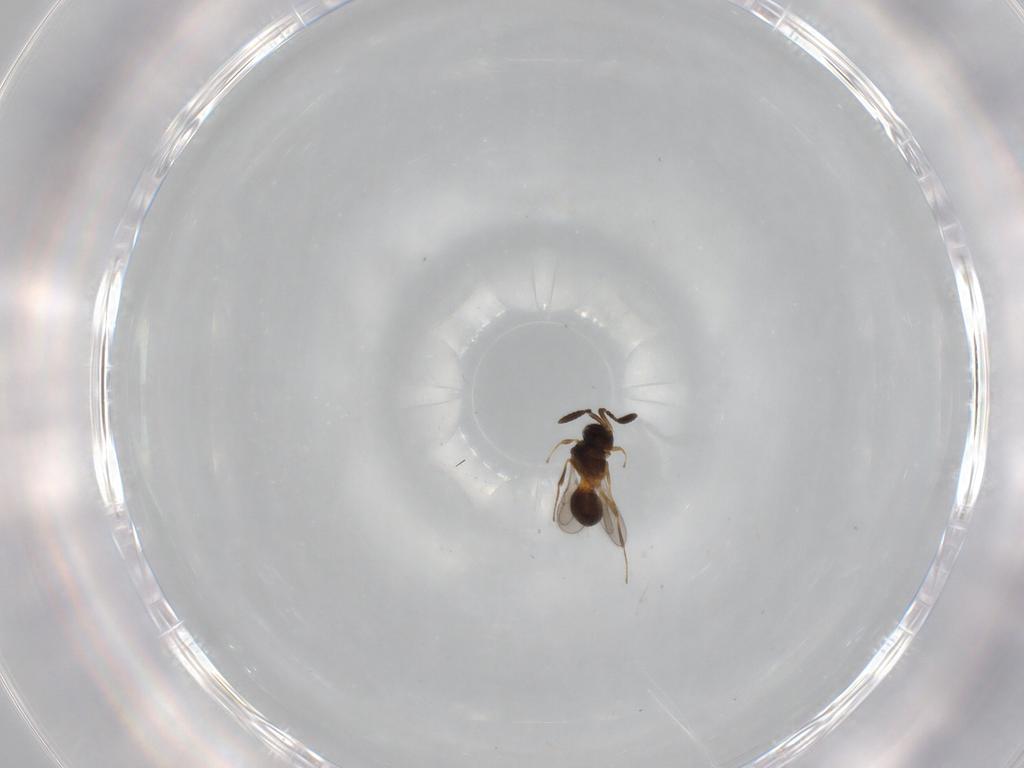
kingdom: Animalia
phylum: Arthropoda
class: Insecta
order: Hymenoptera
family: Scelionidae
